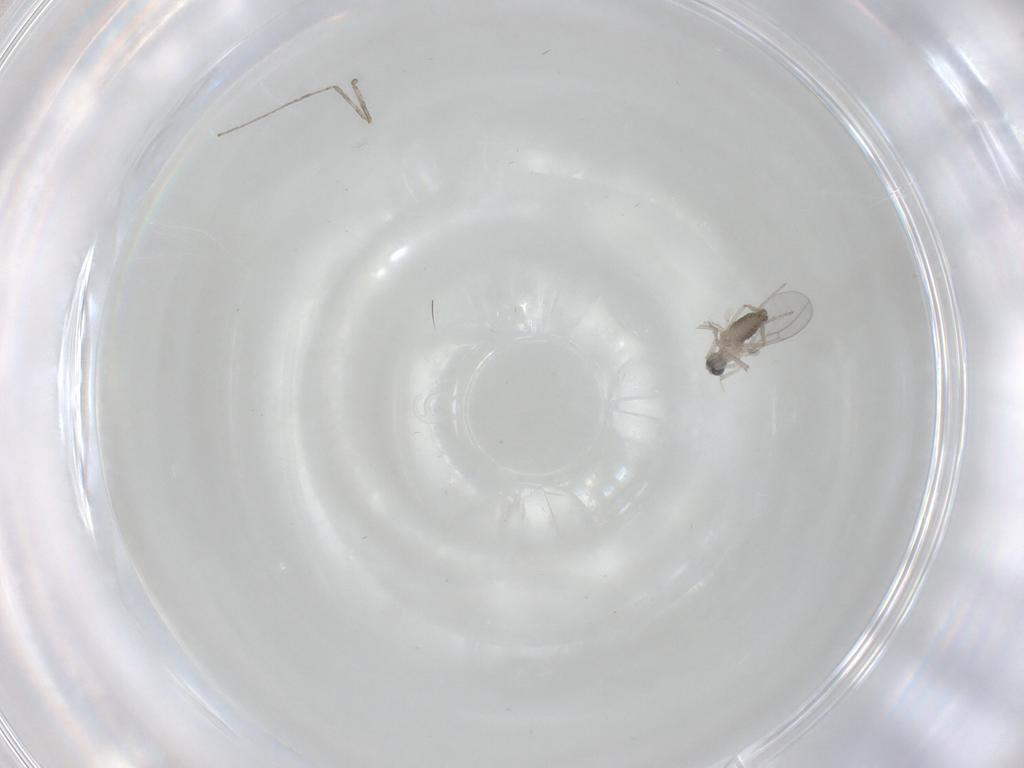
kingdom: Animalia
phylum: Arthropoda
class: Insecta
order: Diptera
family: Cecidomyiidae
